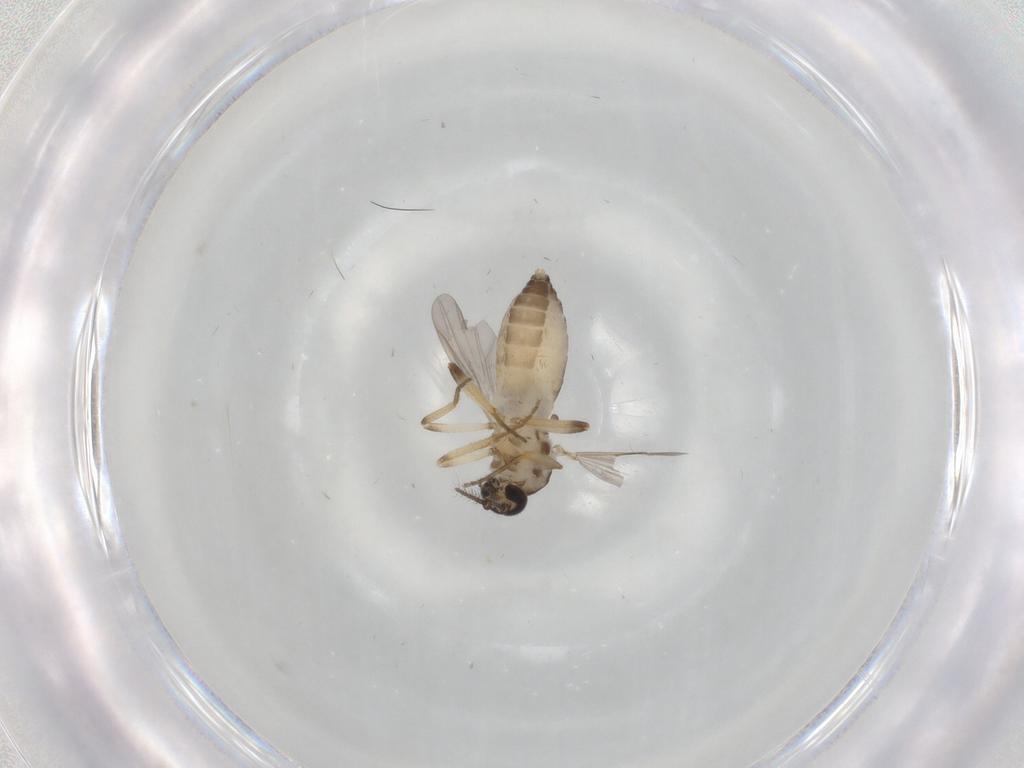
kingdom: Animalia
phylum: Arthropoda
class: Insecta
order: Diptera
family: Ceratopogonidae
